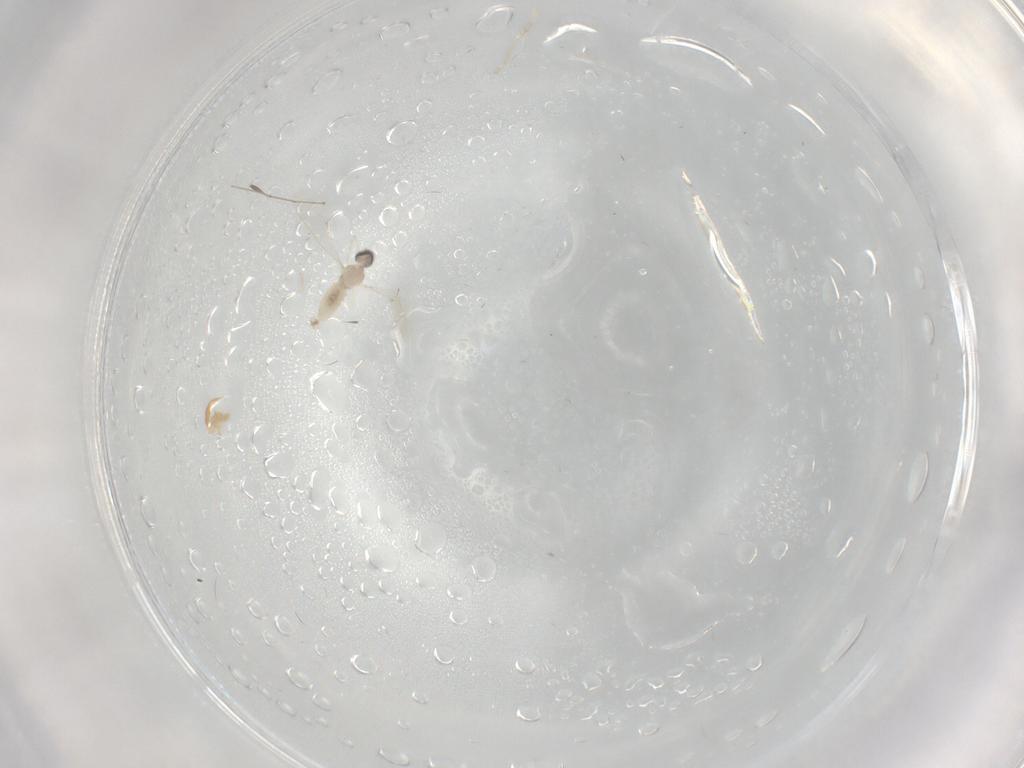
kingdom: Animalia
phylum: Arthropoda
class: Insecta
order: Diptera
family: Cecidomyiidae
